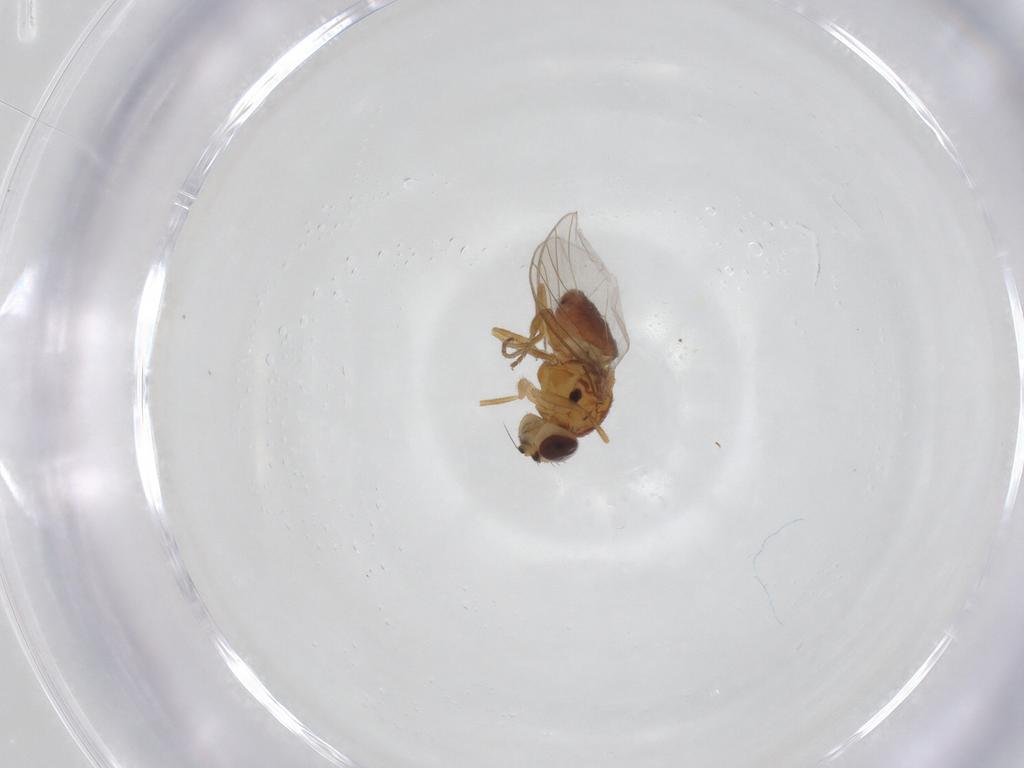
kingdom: Animalia
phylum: Arthropoda
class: Insecta
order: Diptera
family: Chloropidae
